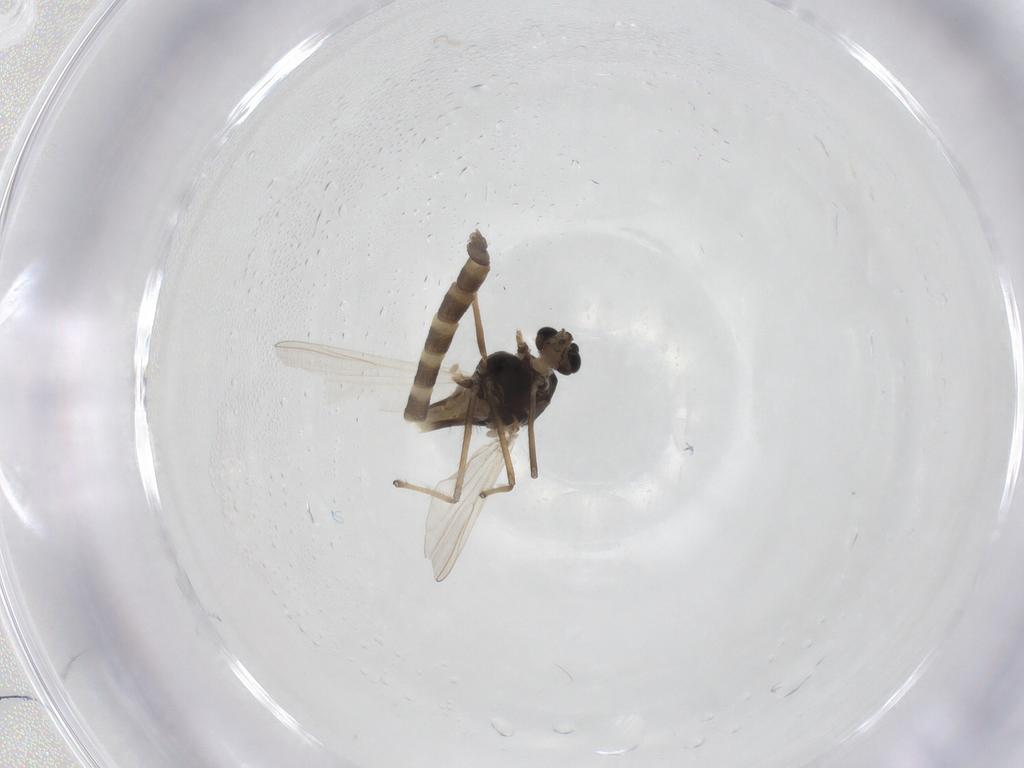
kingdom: Animalia
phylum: Arthropoda
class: Insecta
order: Diptera
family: Chironomidae
